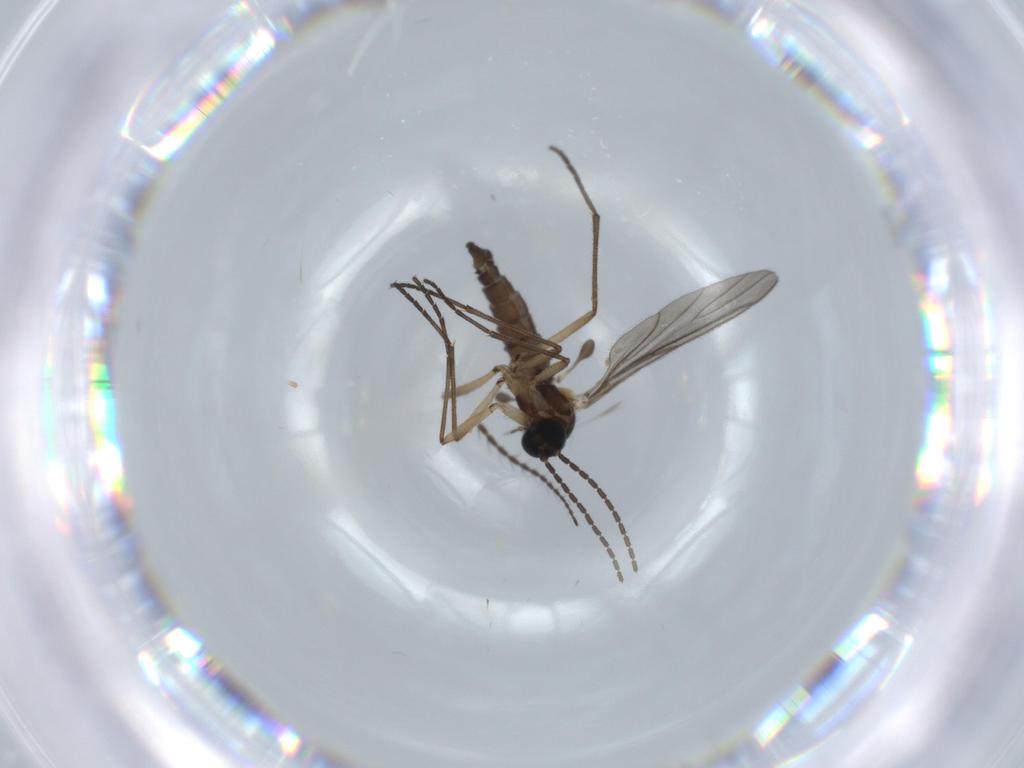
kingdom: Animalia
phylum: Arthropoda
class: Insecta
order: Diptera
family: Limoniidae
